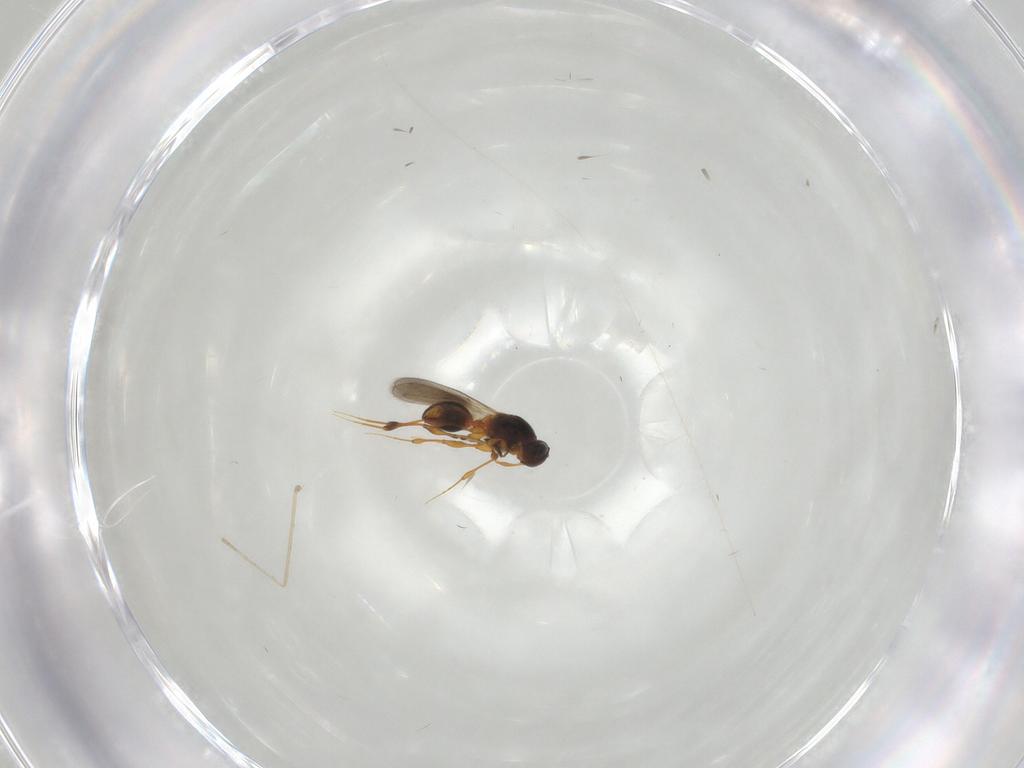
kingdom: Animalia
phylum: Arthropoda
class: Insecta
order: Hymenoptera
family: Platygastridae
